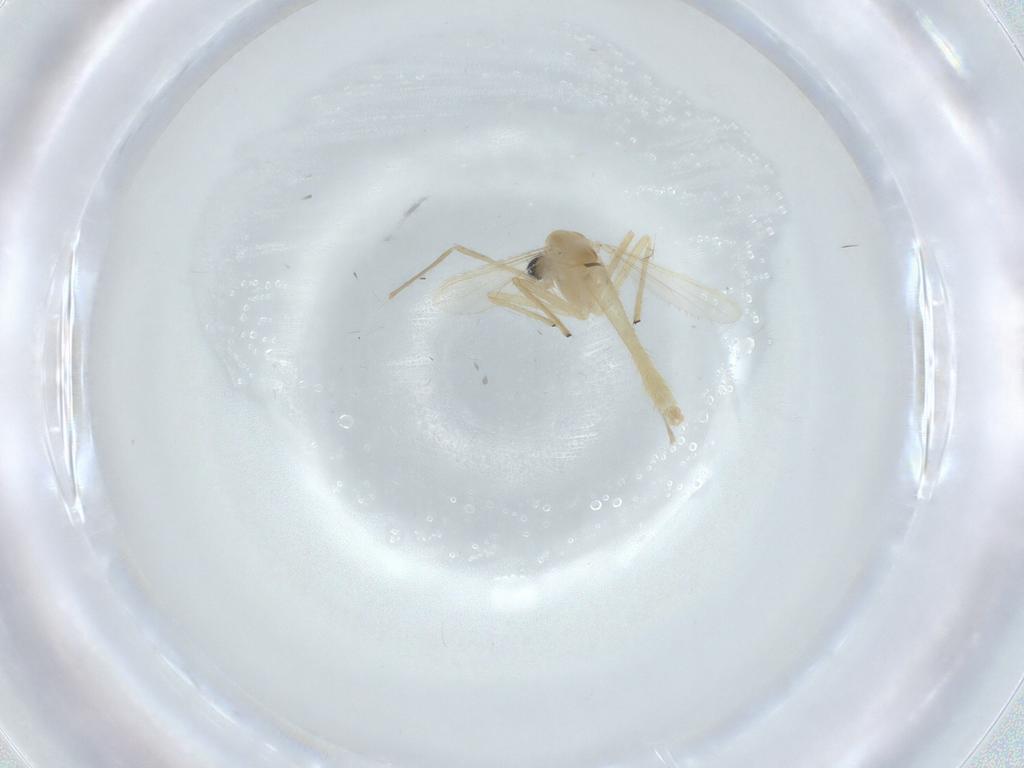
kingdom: Animalia
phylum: Arthropoda
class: Insecta
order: Diptera
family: Chironomidae
